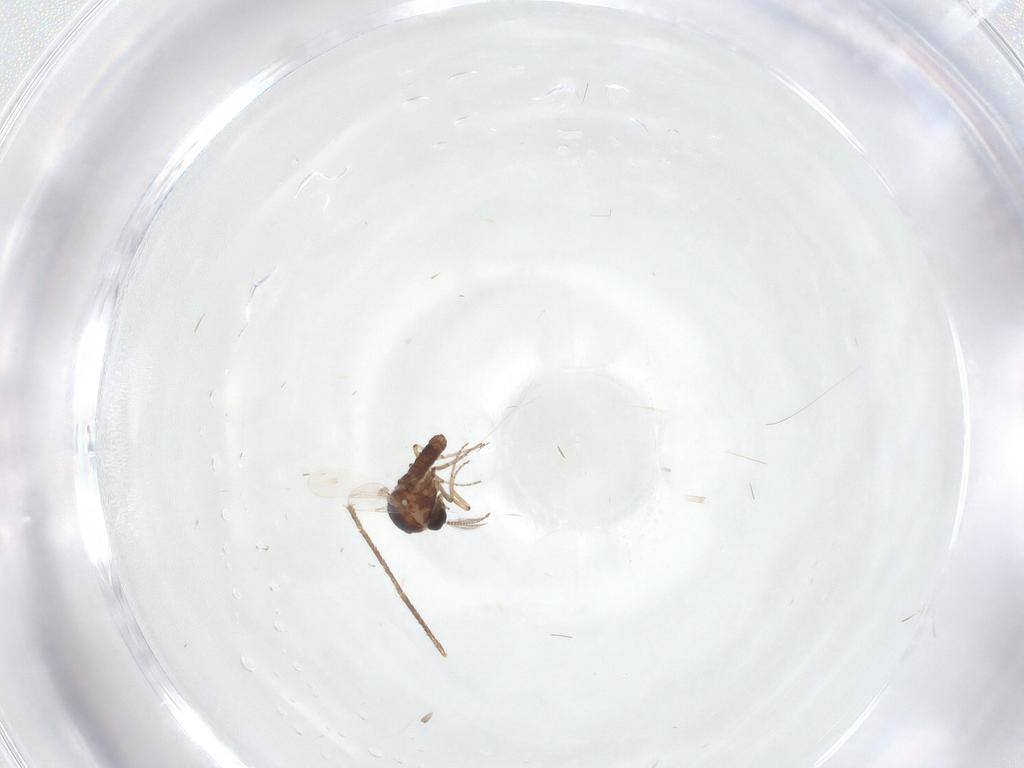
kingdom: Animalia
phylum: Arthropoda
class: Insecta
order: Diptera
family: Ceratopogonidae
